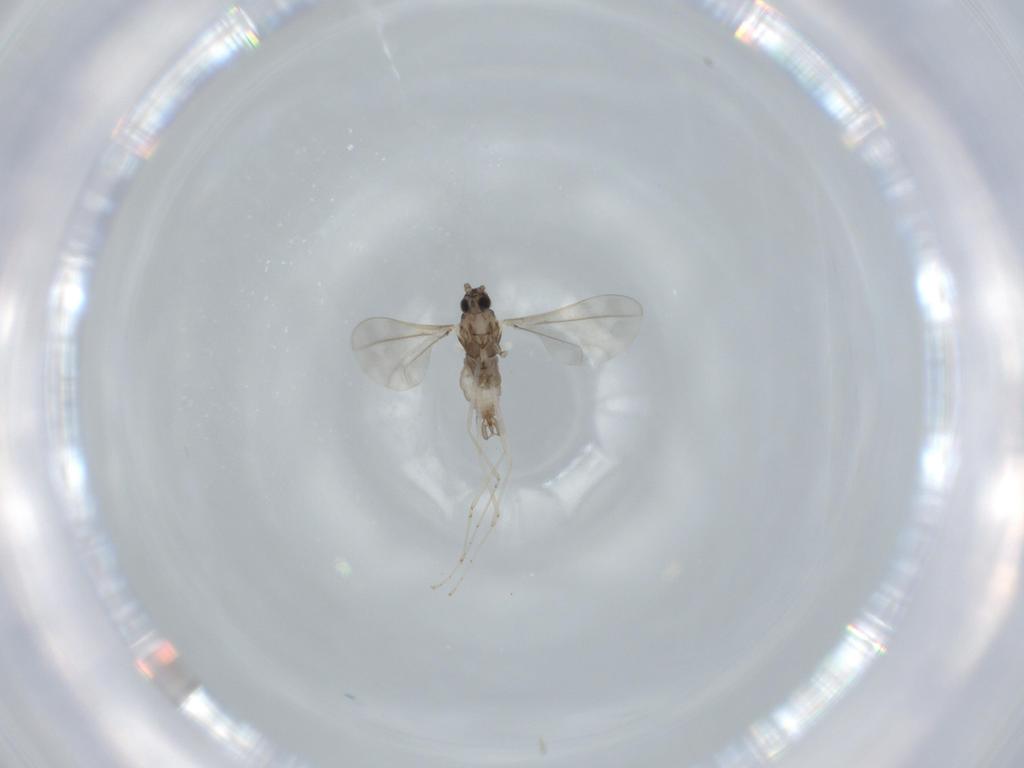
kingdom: Animalia
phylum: Arthropoda
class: Insecta
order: Diptera
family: Cecidomyiidae
